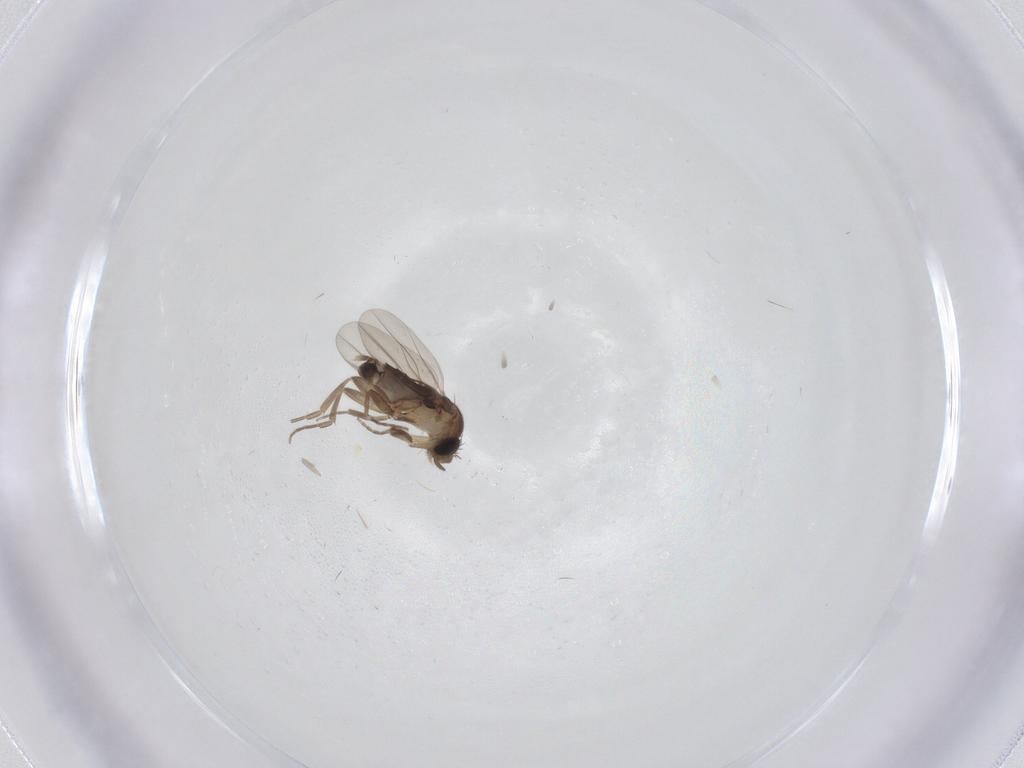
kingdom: Animalia
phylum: Arthropoda
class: Insecta
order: Diptera
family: Phoridae
